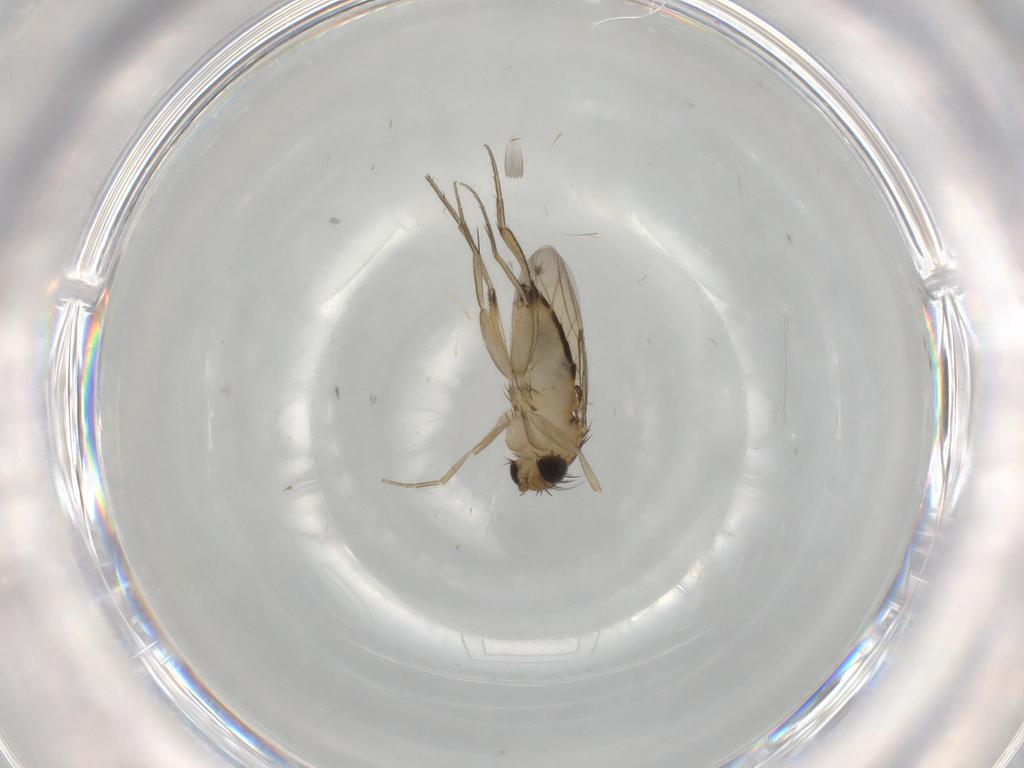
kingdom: Animalia
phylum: Arthropoda
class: Insecta
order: Diptera
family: Phoridae
